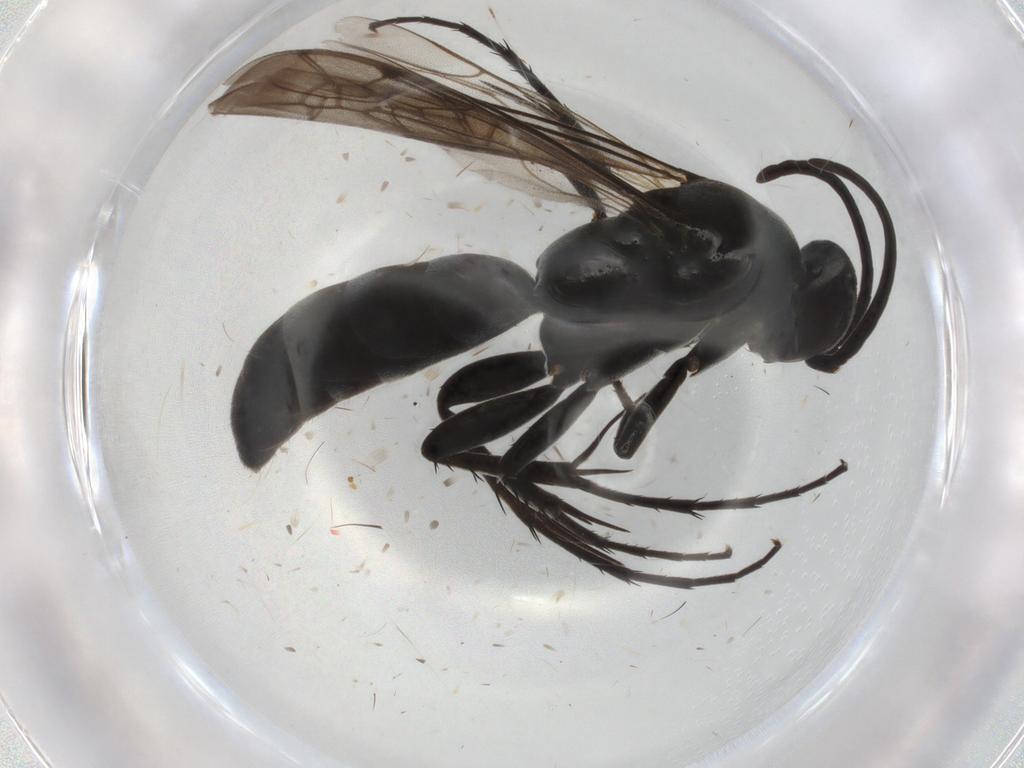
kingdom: Animalia
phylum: Arthropoda
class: Insecta
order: Hymenoptera
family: Pompilidae
